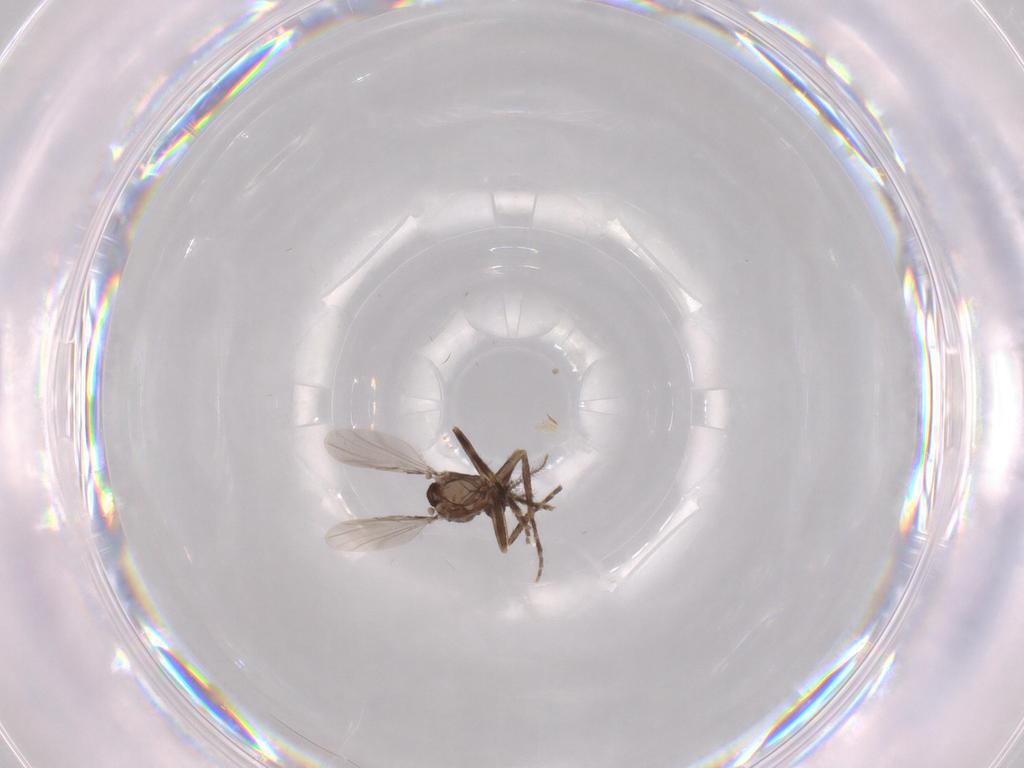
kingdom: Animalia
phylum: Arthropoda
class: Insecta
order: Diptera
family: Ceratopogonidae
